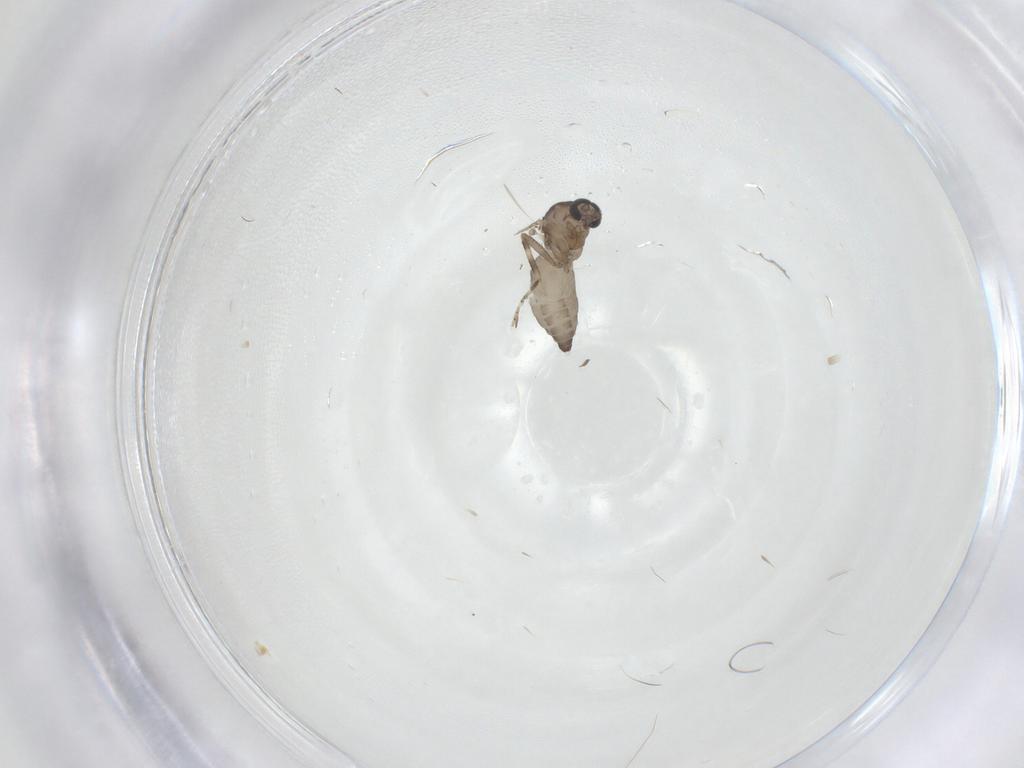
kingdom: Animalia
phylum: Arthropoda
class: Insecta
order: Diptera
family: Ceratopogonidae
